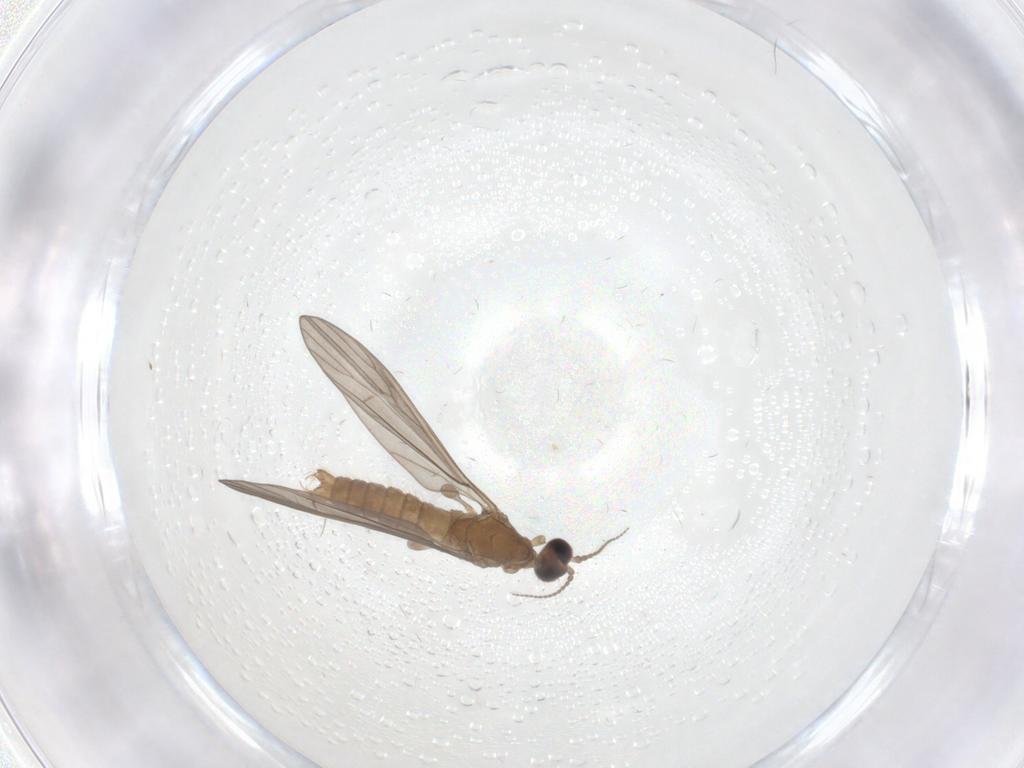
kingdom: Animalia
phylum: Arthropoda
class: Insecta
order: Diptera
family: Limoniidae
